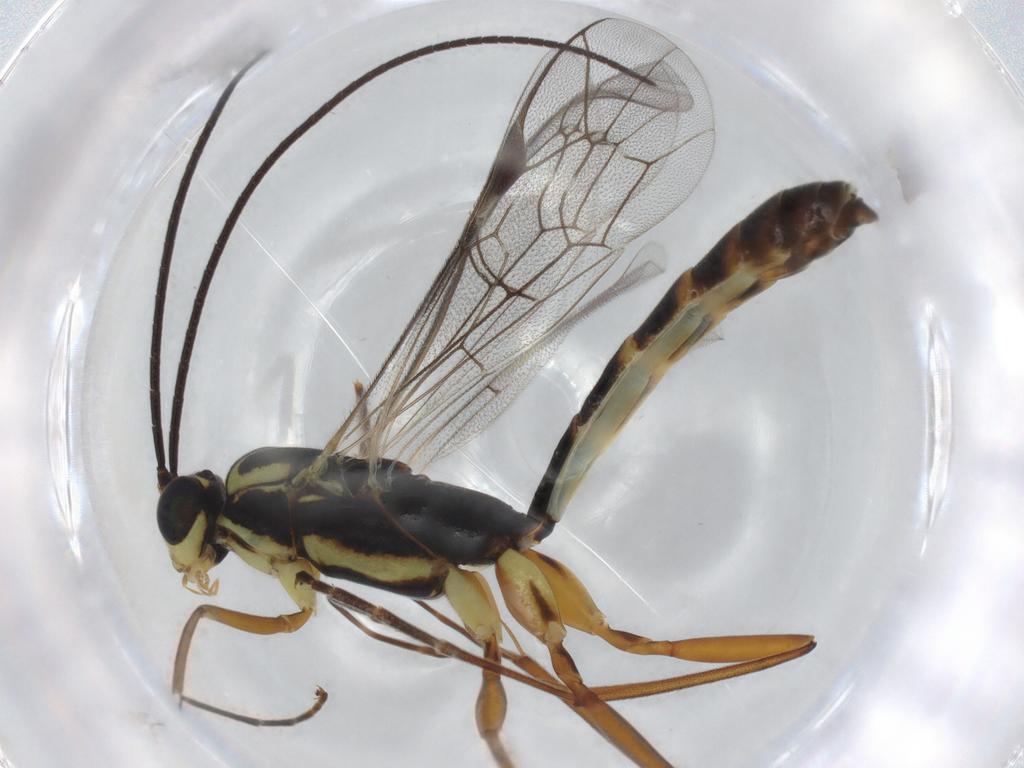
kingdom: Animalia
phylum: Arthropoda
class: Insecta
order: Hymenoptera
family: Ichneumonidae
